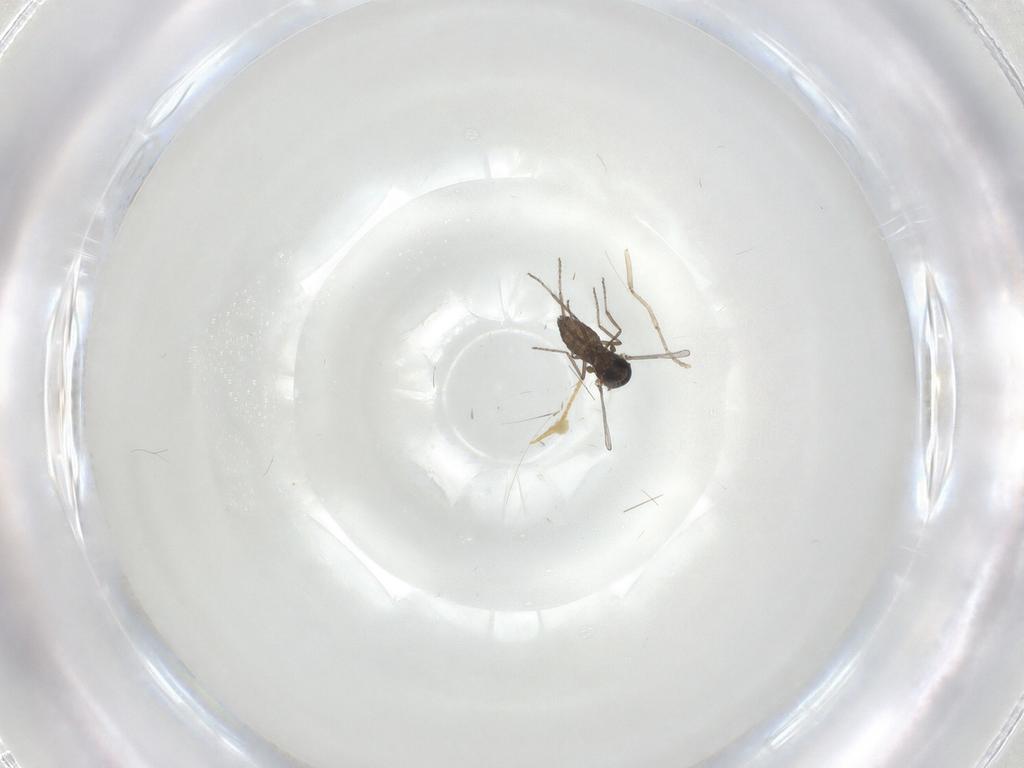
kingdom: Animalia
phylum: Arthropoda
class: Insecta
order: Diptera
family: Ceratopogonidae
